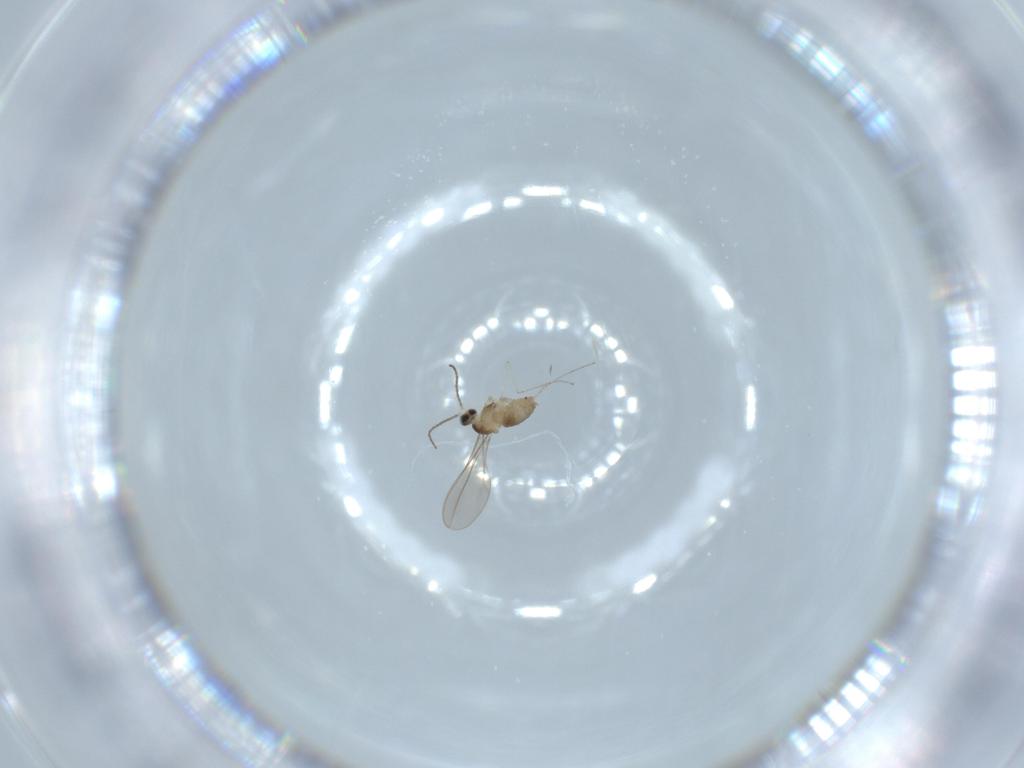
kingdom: Animalia
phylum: Arthropoda
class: Insecta
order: Diptera
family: Cecidomyiidae
